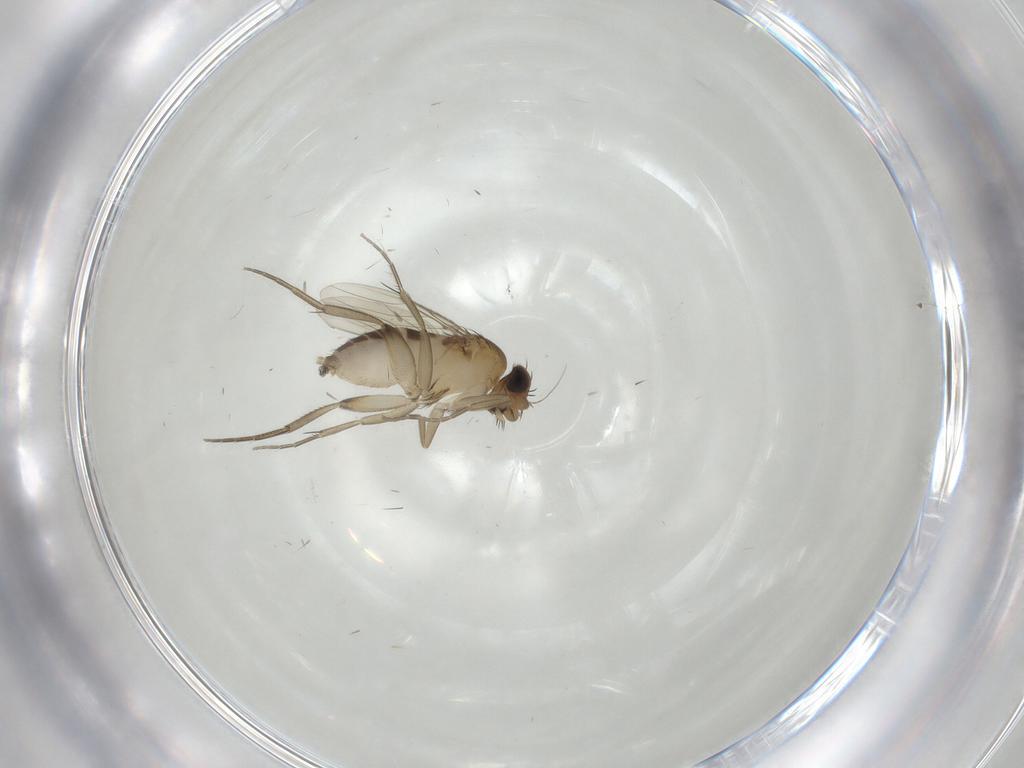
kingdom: Animalia
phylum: Arthropoda
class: Insecta
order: Diptera
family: Phoridae
